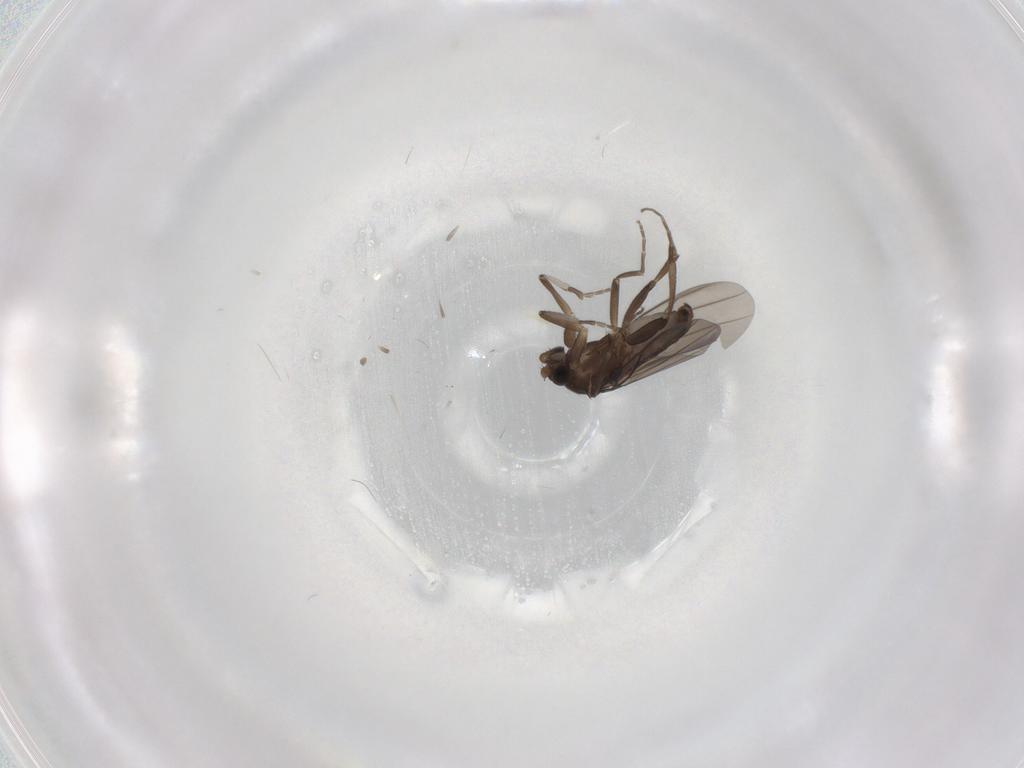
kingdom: Animalia
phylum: Arthropoda
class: Insecta
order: Diptera
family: Phoridae
